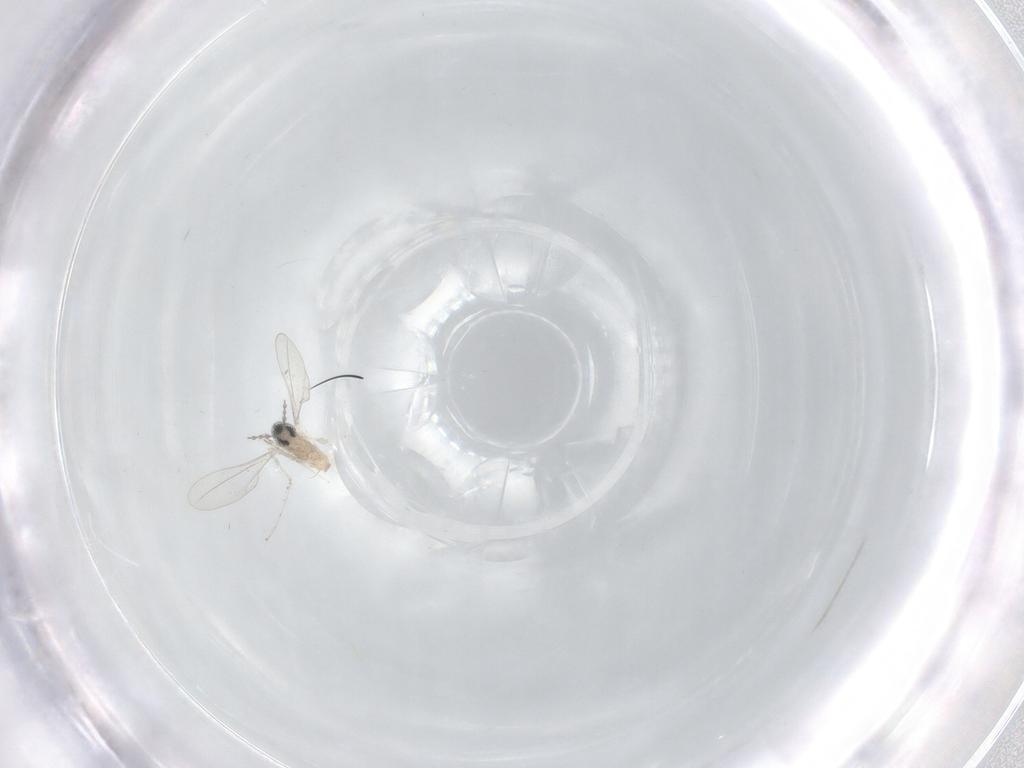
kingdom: Animalia
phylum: Arthropoda
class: Insecta
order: Diptera
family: Cecidomyiidae
